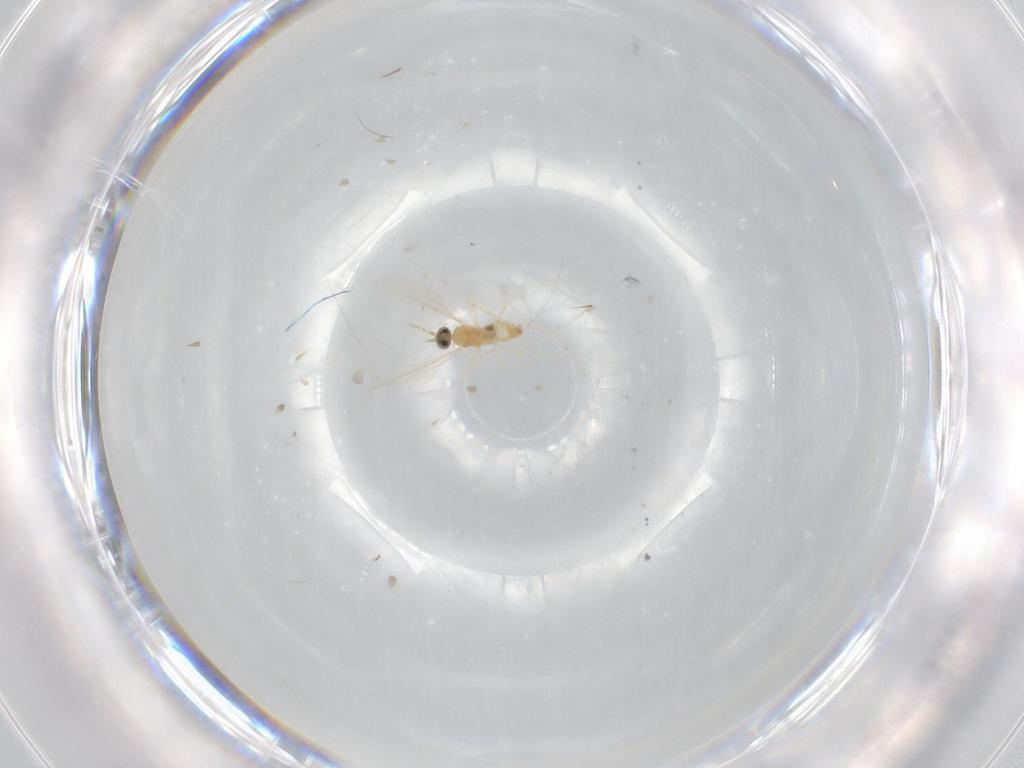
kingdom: Animalia
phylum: Arthropoda
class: Insecta
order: Diptera
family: Cecidomyiidae
